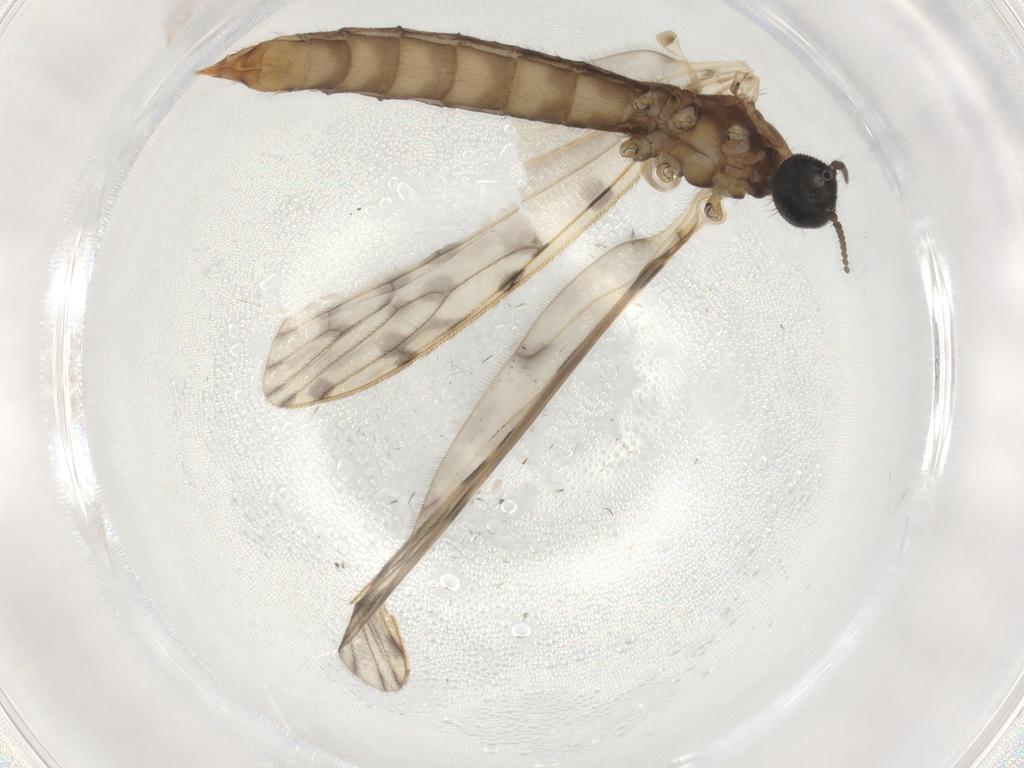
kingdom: Animalia
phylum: Arthropoda
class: Insecta
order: Diptera
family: Phoridae
